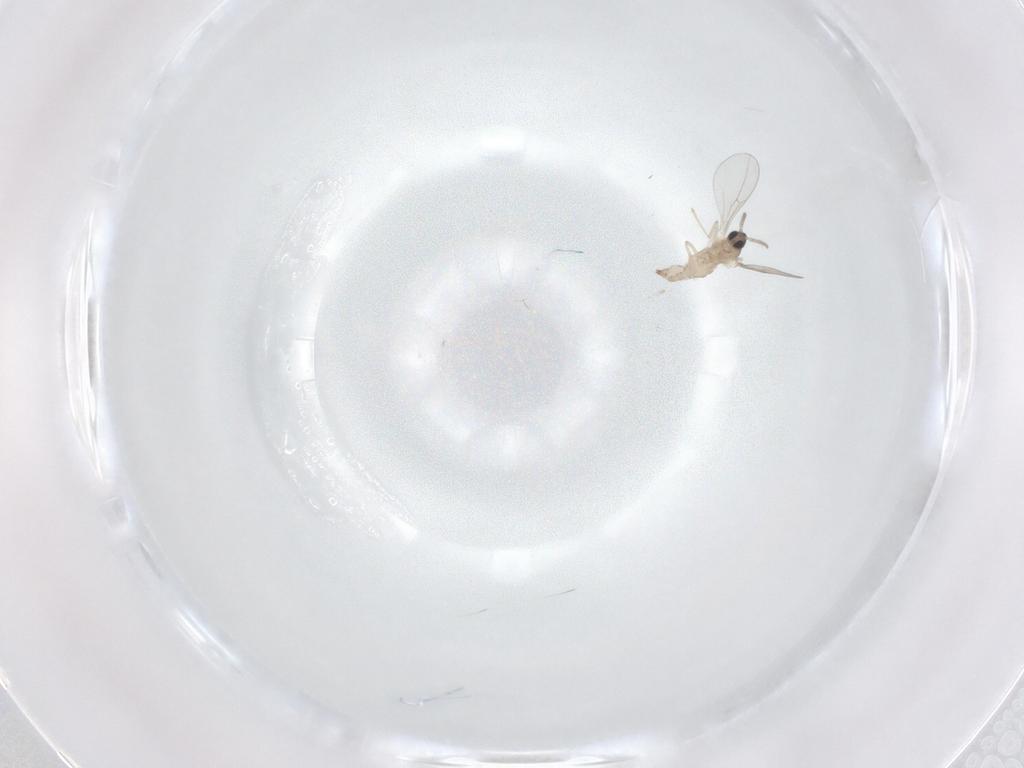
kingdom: Animalia
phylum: Arthropoda
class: Insecta
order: Diptera
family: Cecidomyiidae
